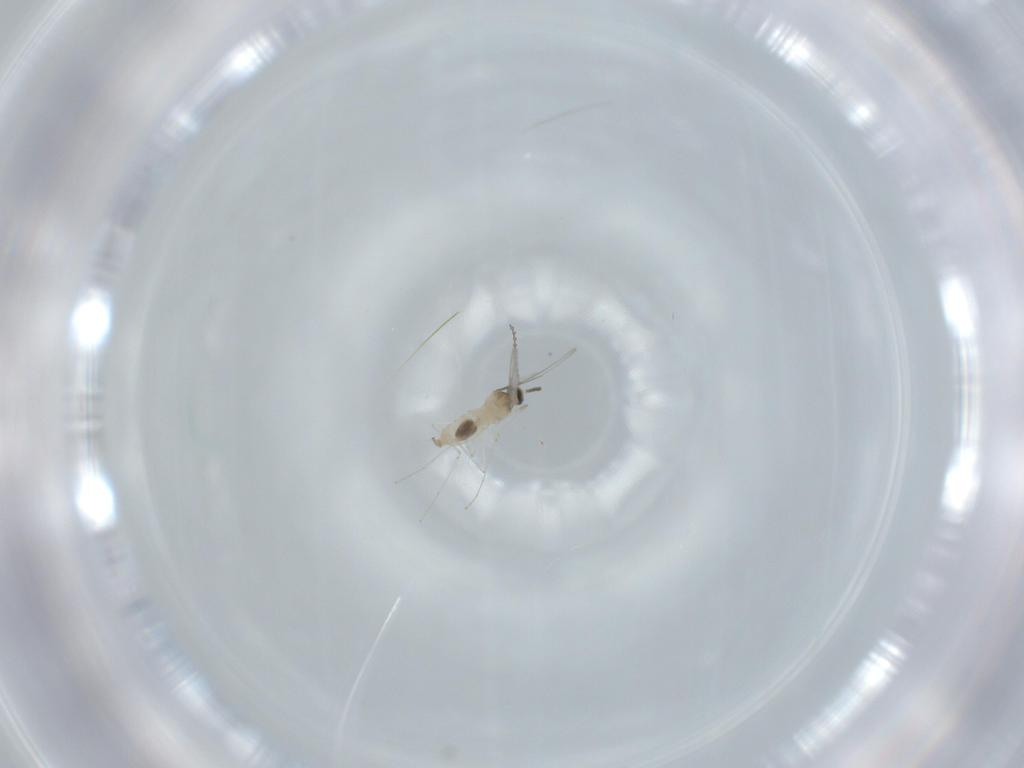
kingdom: Animalia
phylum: Arthropoda
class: Insecta
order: Diptera
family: Cecidomyiidae
